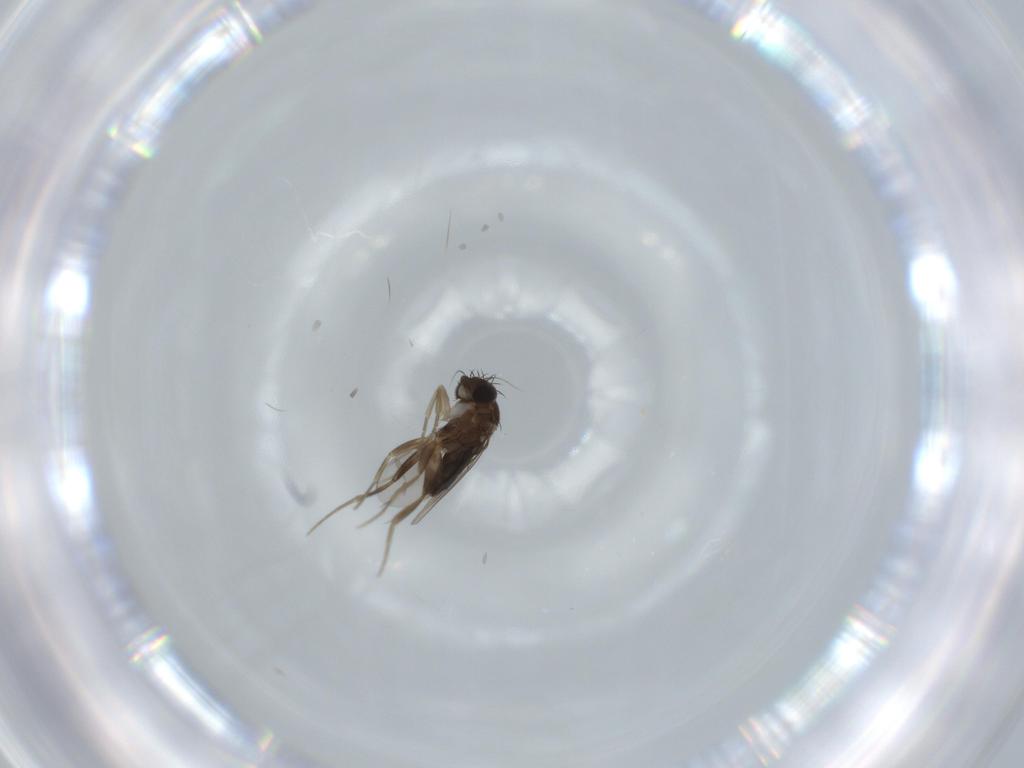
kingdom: Animalia
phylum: Arthropoda
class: Insecta
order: Diptera
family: Phoridae
